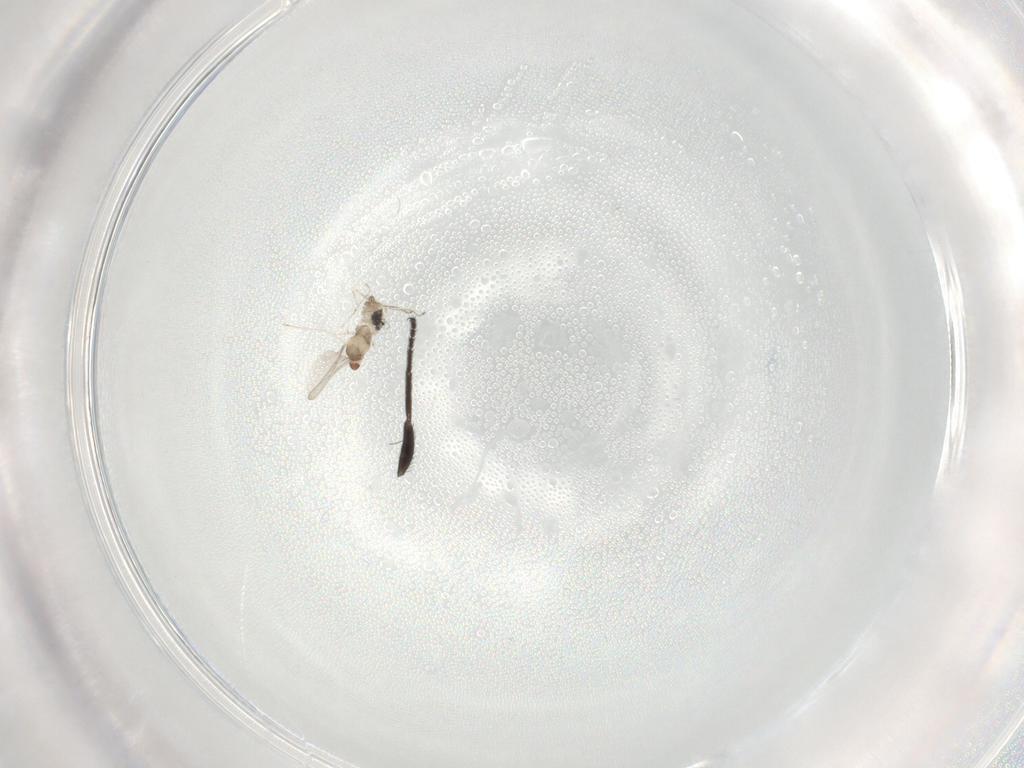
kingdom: Animalia
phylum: Arthropoda
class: Insecta
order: Diptera
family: Cecidomyiidae
